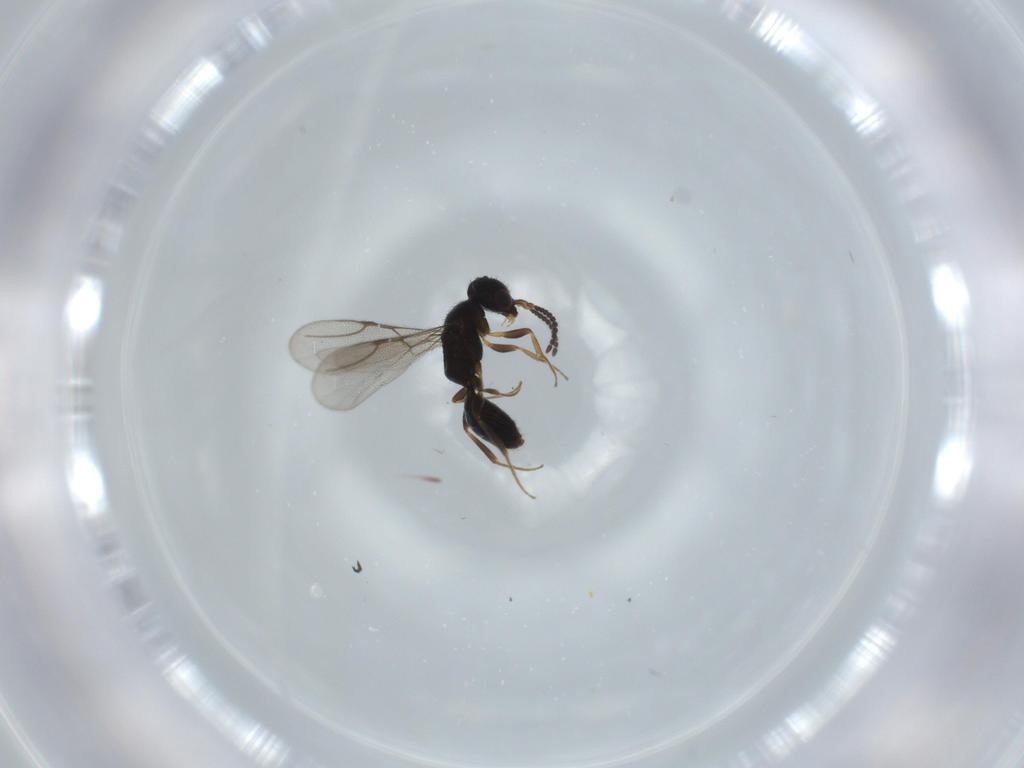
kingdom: Animalia
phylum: Arthropoda
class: Insecta
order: Hymenoptera
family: Bethylidae
